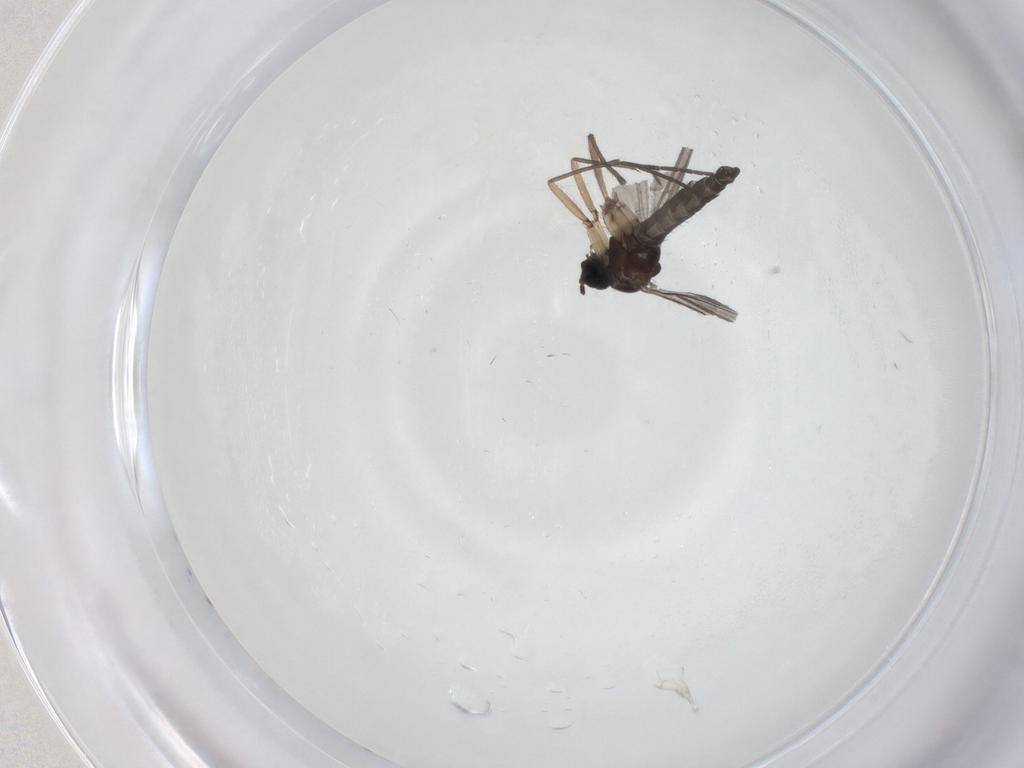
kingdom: Animalia
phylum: Arthropoda
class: Insecta
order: Diptera
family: Sciaridae
